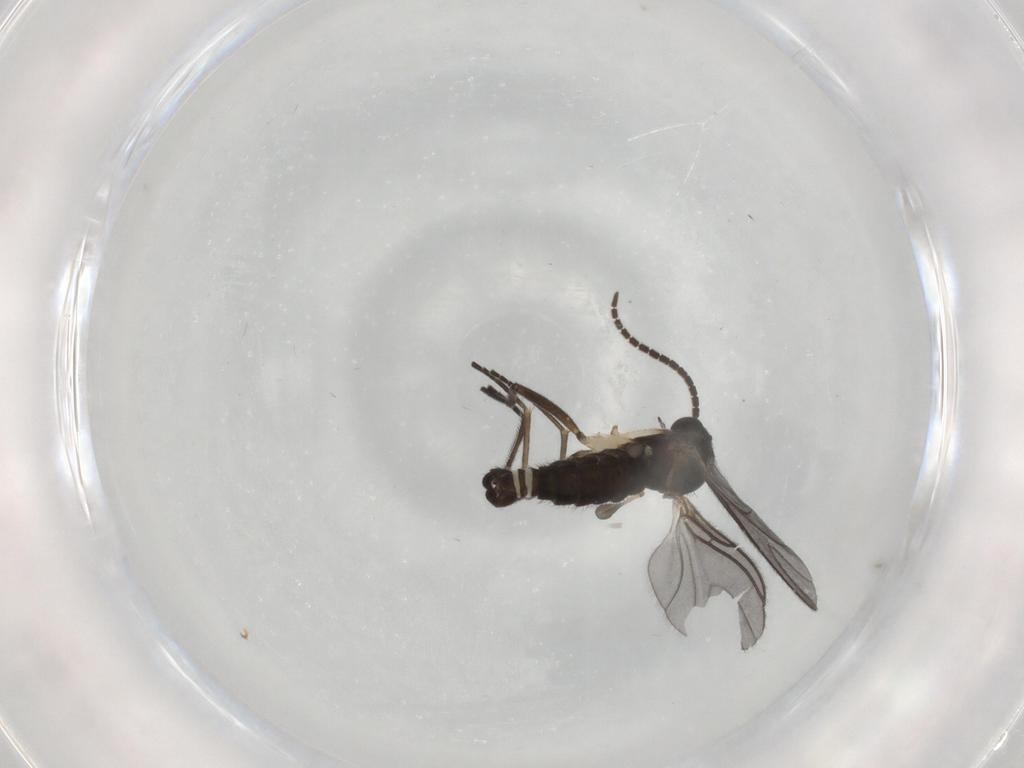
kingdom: Animalia
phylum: Arthropoda
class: Insecta
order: Diptera
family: Sciaridae
